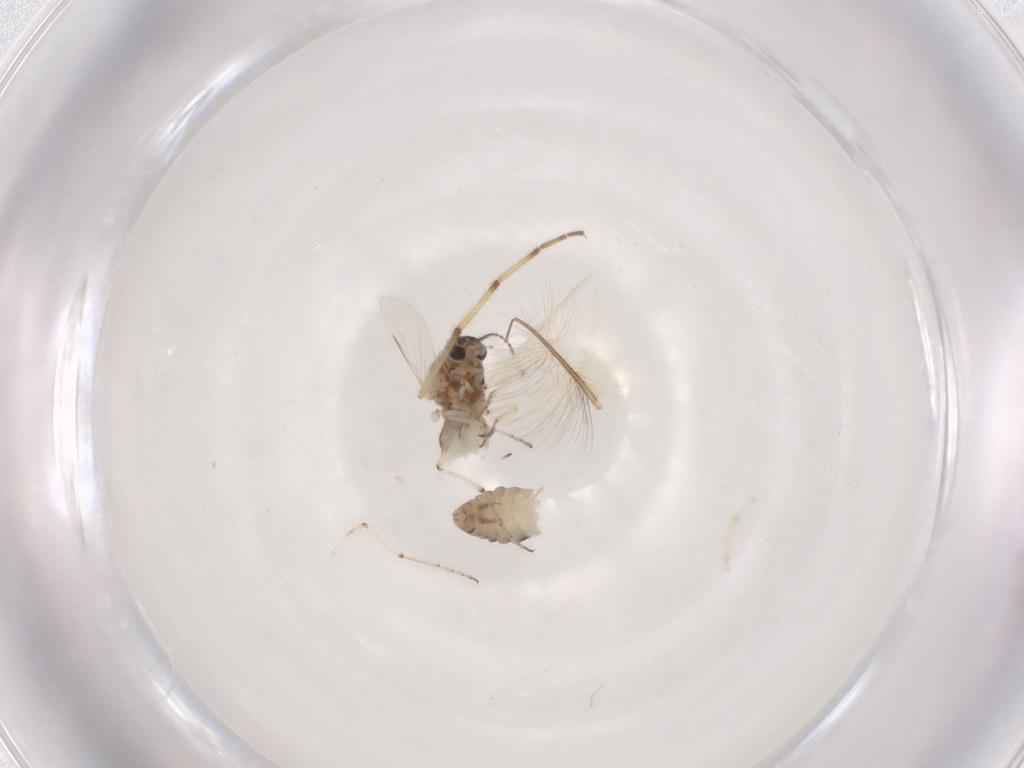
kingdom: Animalia
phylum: Arthropoda
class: Insecta
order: Diptera
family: Ceratopogonidae
